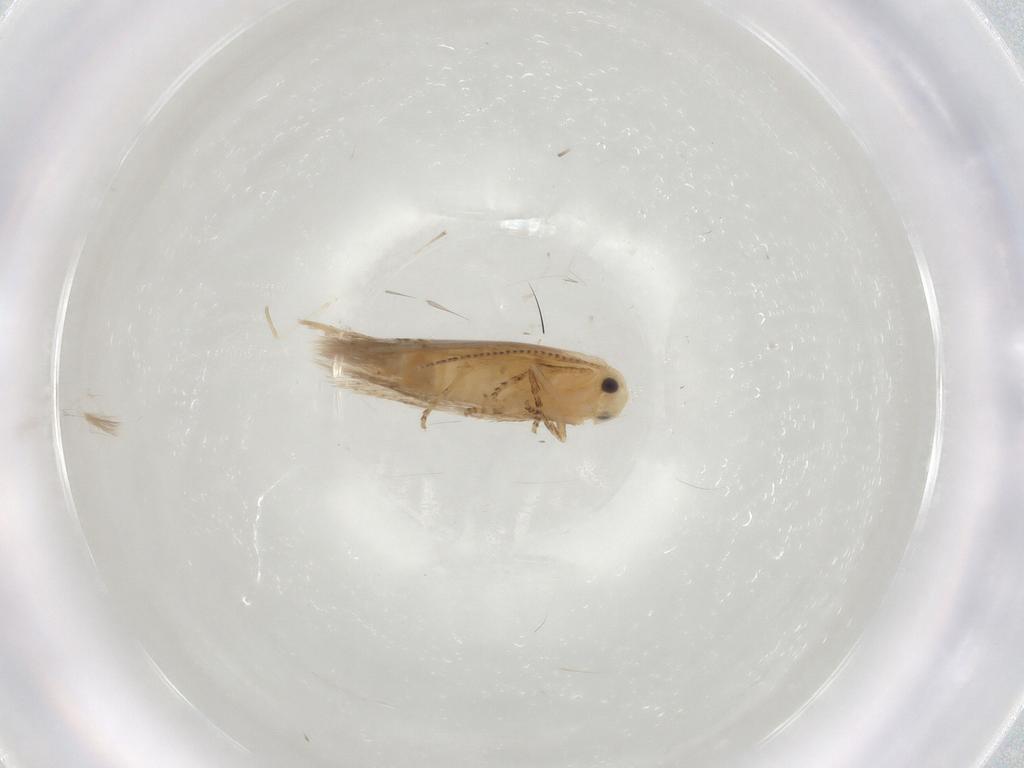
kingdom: Animalia
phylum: Arthropoda
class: Insecta
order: Lepidoptera
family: Bucculatricidae
